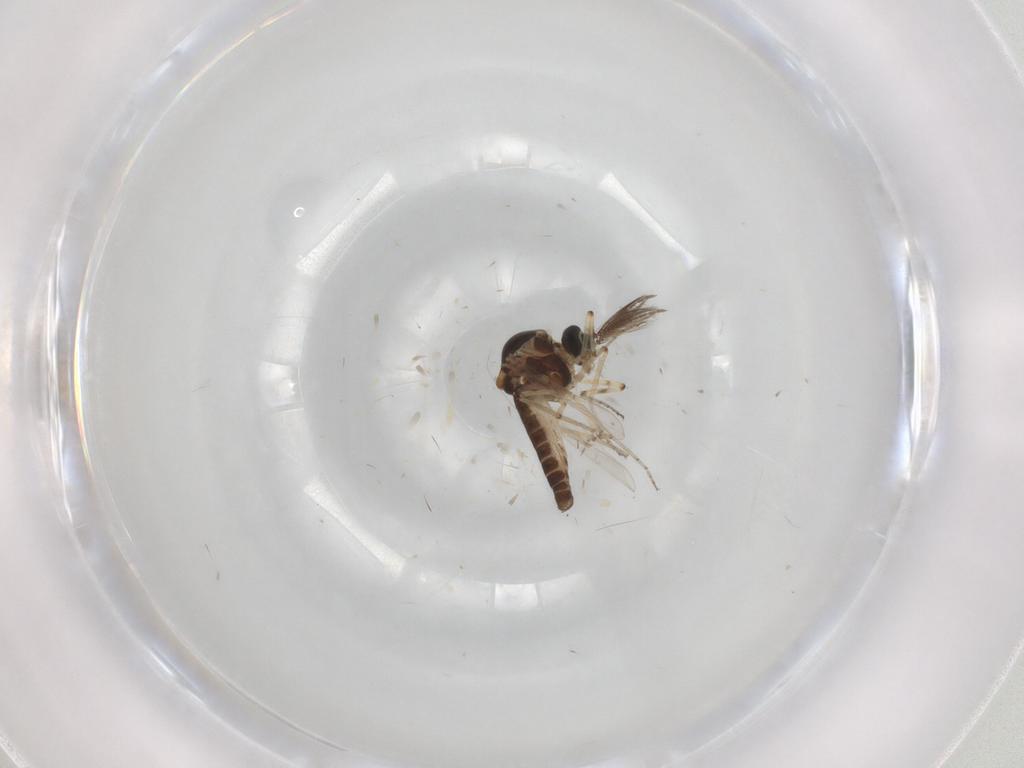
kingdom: Animalia
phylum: Arthropoda
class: Insecta
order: Diptera
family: Ceratopogonidae
